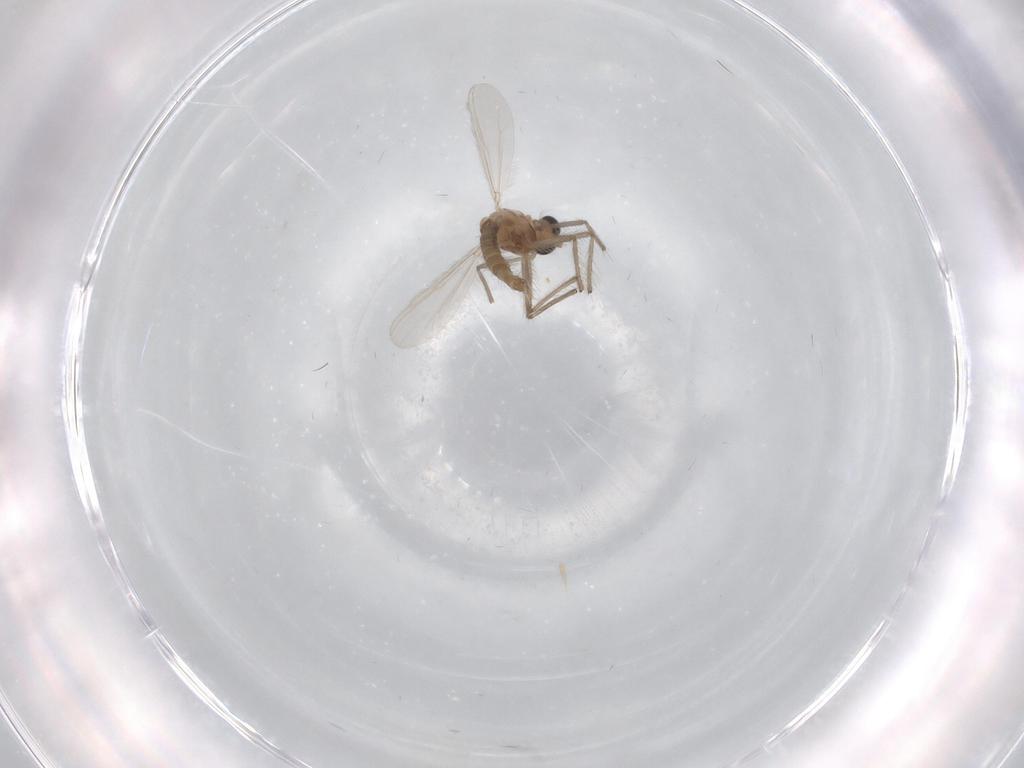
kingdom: Animalia
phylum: Arthropoda
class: Insecta
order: Diptera
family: Chironomidae
